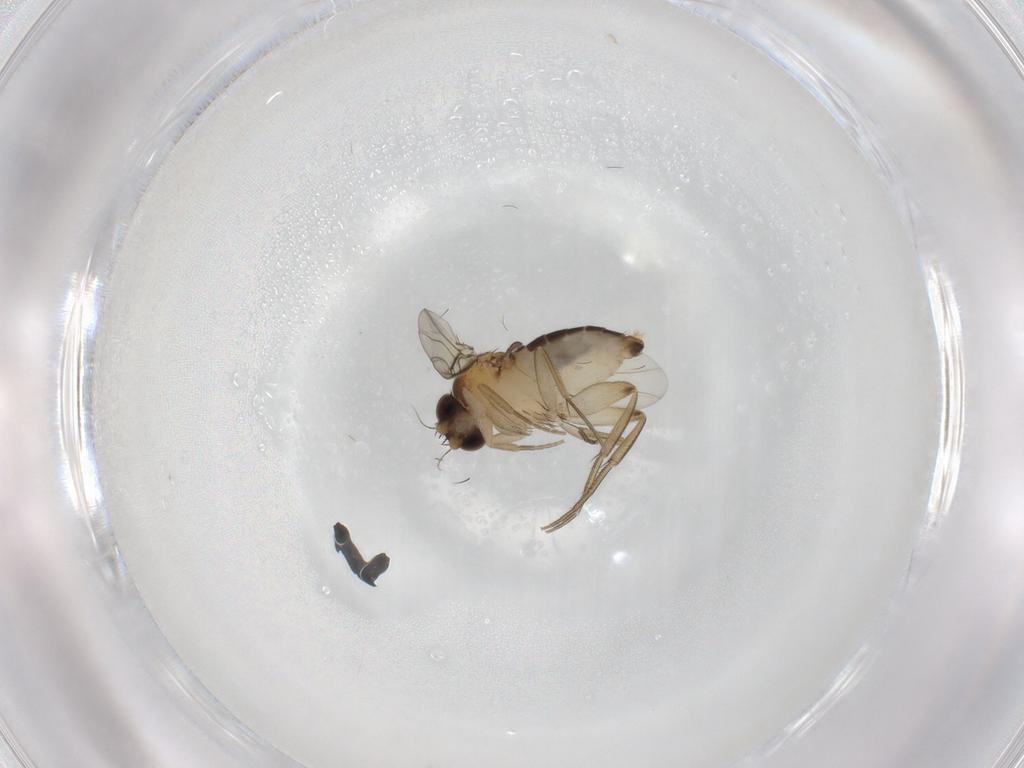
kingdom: Animalia
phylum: Arthropoda
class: Insecta
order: Diptera
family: Phoridae
